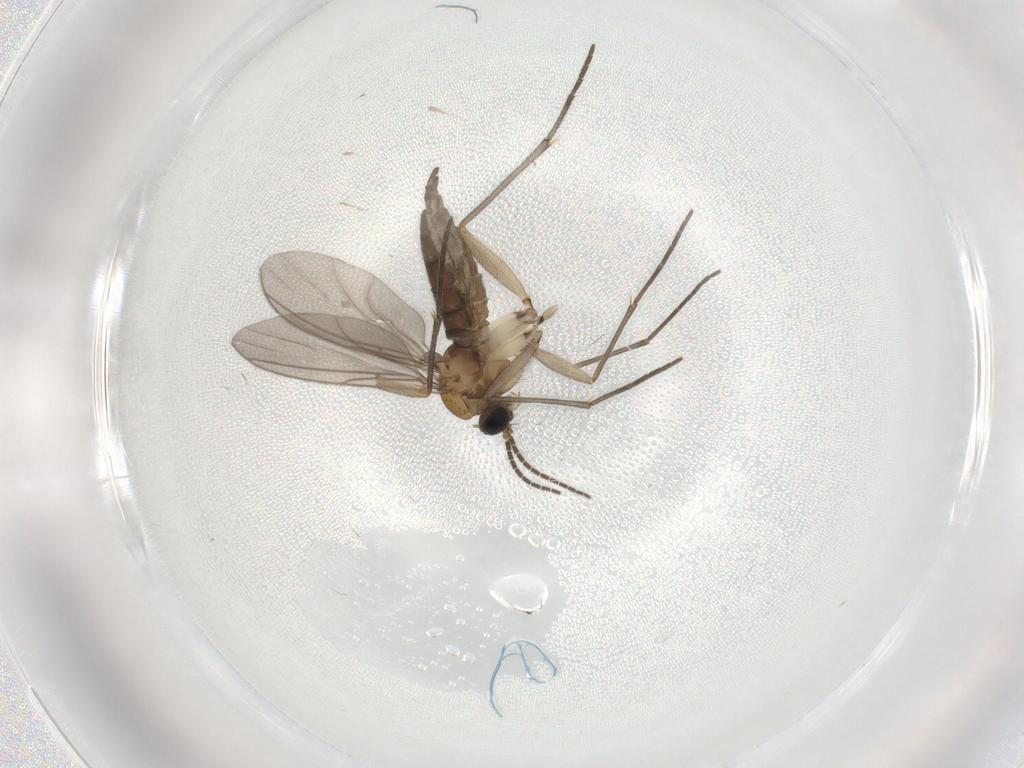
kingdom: Animalia
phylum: Arthropoda
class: Insecta
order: Diptera
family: Sciaridae
